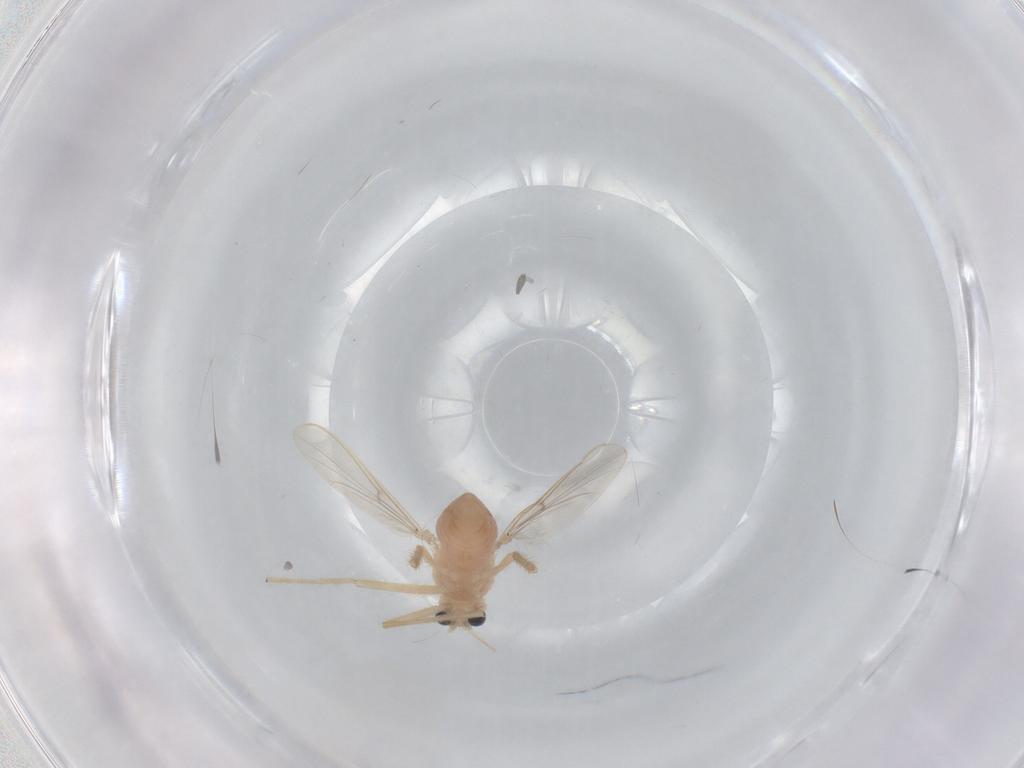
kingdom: Animalia
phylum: Arthropoda
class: Insecta
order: Diptera
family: Chironomidae
